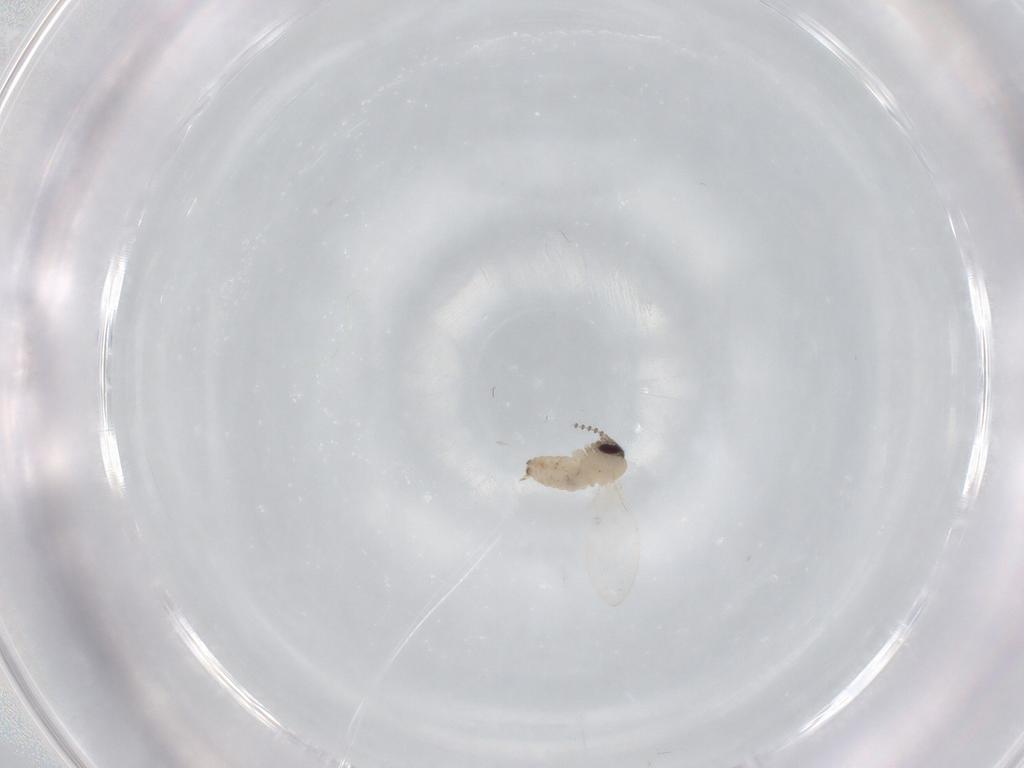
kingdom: Animalia
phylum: Arthropoda
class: Insecta
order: Diptera
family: Psychodidae
